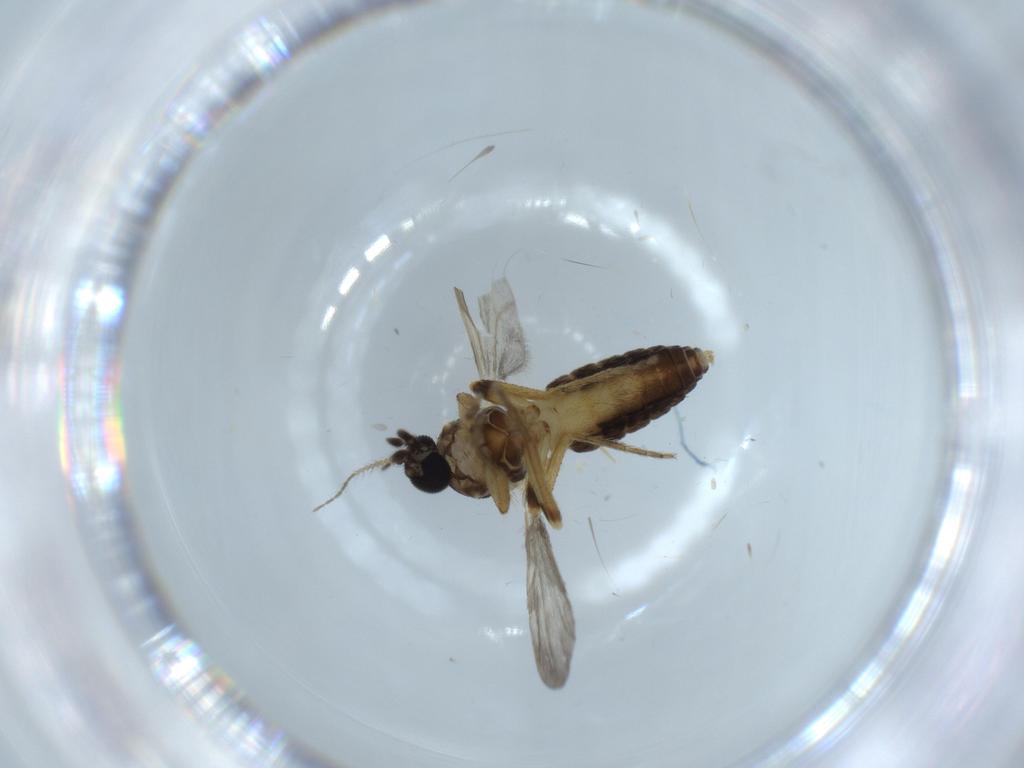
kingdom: Animalia
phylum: Arthropoda
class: Insecta
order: Diptera
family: Ceratopogonidae
